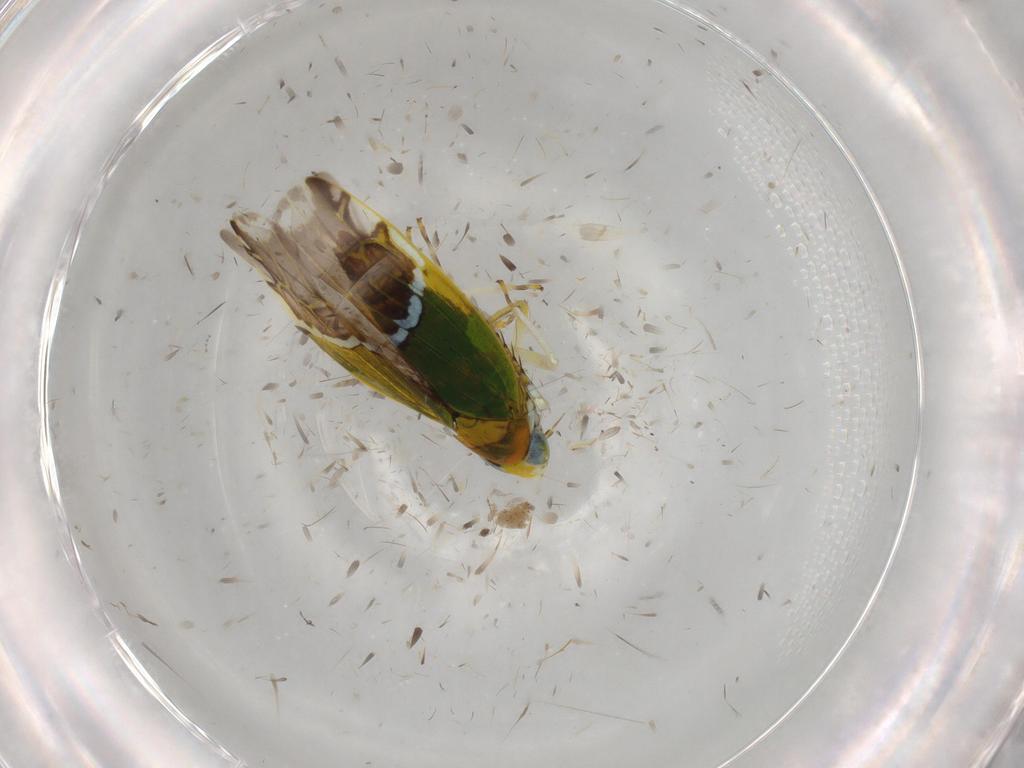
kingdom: Animalia
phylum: Arthropoda
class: Insecta
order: Hemiptera
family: Cicadellidae
